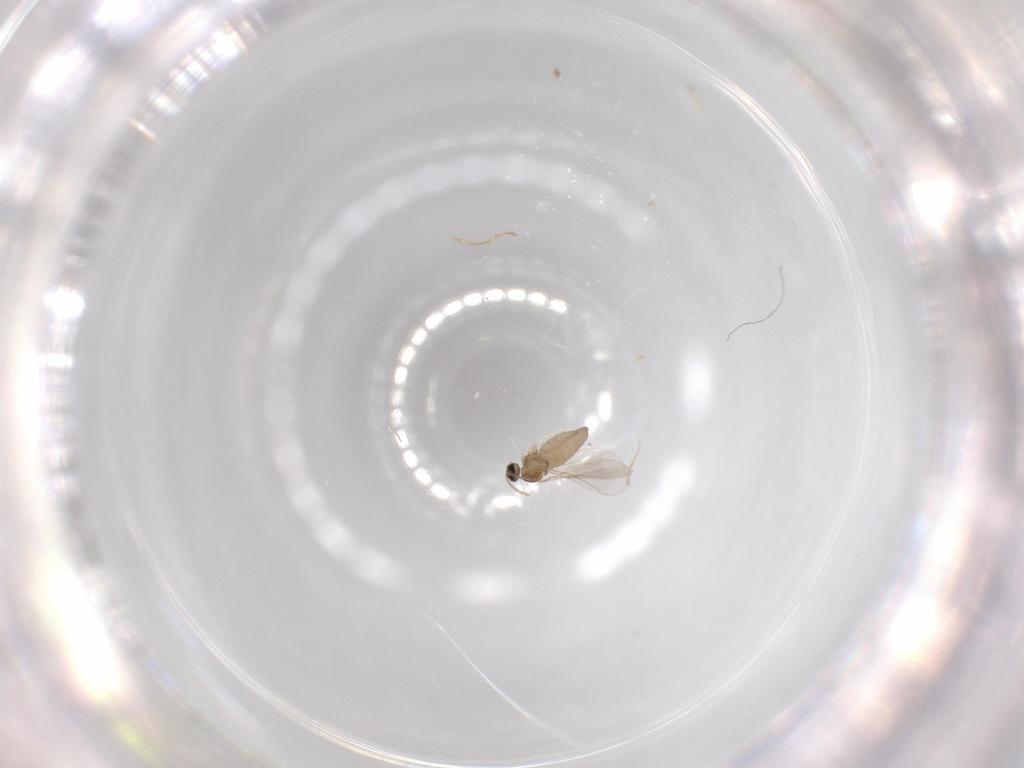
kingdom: Animalia
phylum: Arthropoda
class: Insecta
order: Diptera
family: Cecidomyiidae
